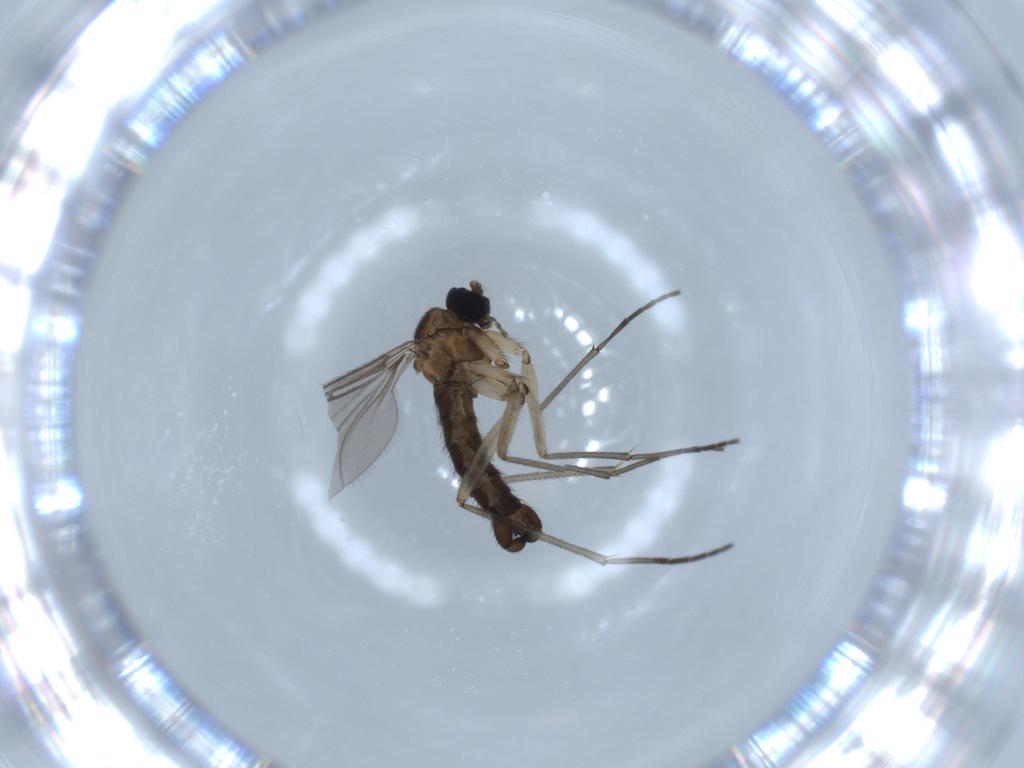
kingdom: Animalia
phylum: Arthropoda
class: Insecta
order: Diptera
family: Sciaridae
